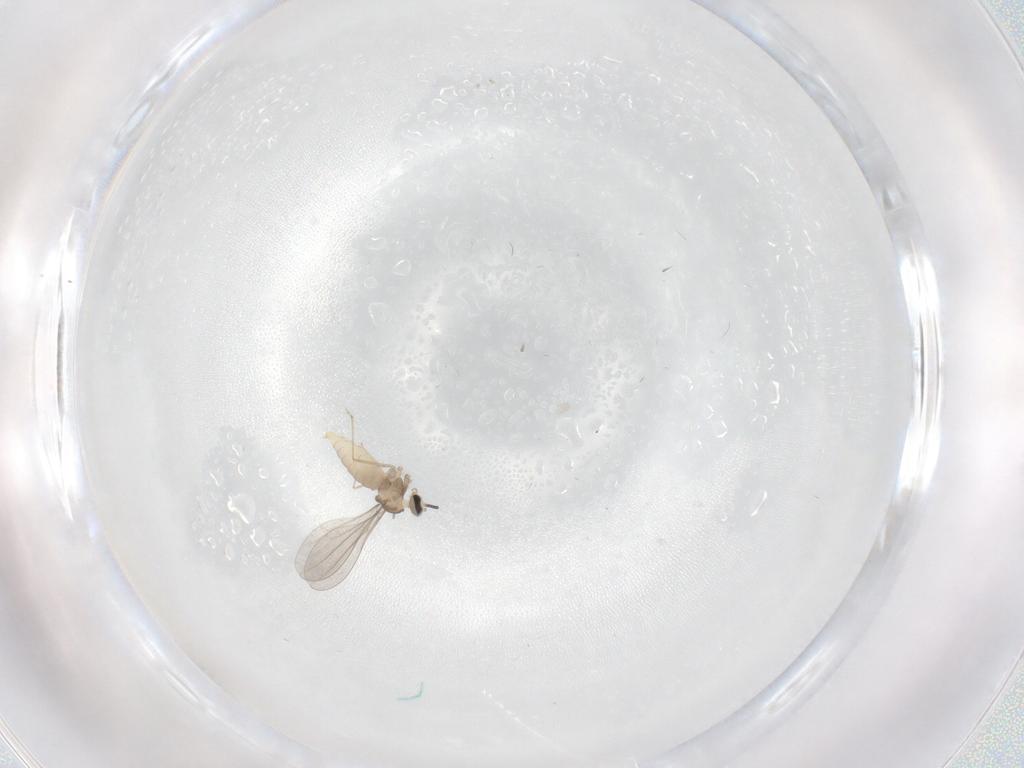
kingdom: Animalia
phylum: Arthropoda
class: Insecta
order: Diptera
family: Cecidomyiidae
